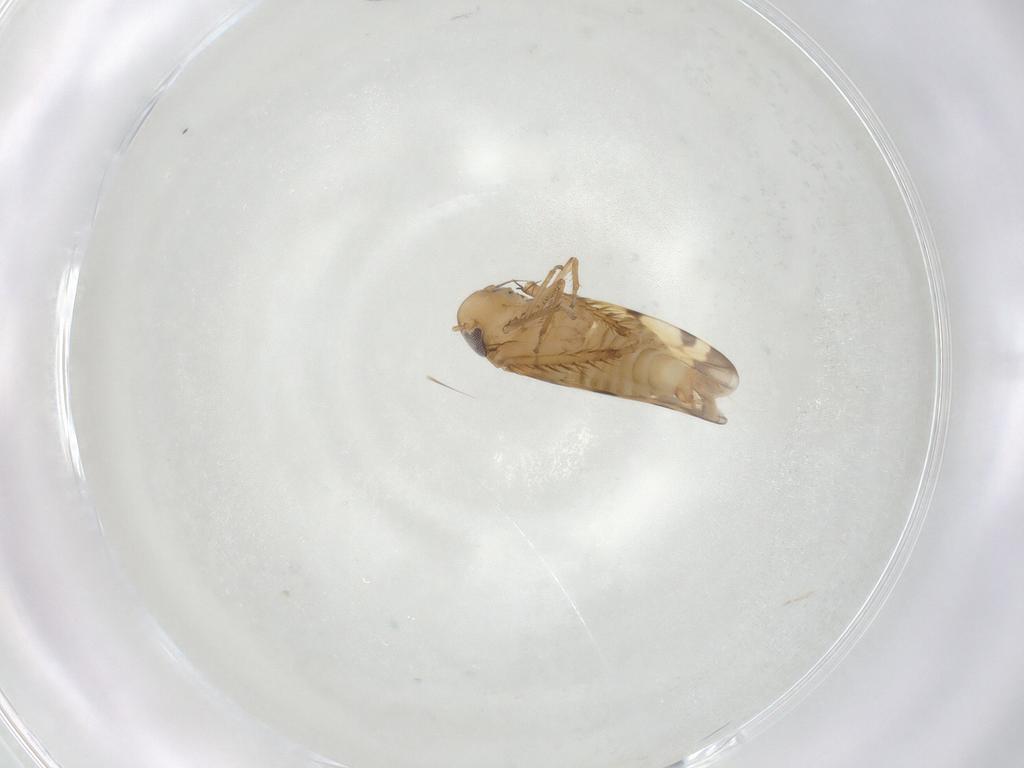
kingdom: Animalia
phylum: Arthropoda
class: Insecta
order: Hemiptera
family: Cicadellidae
